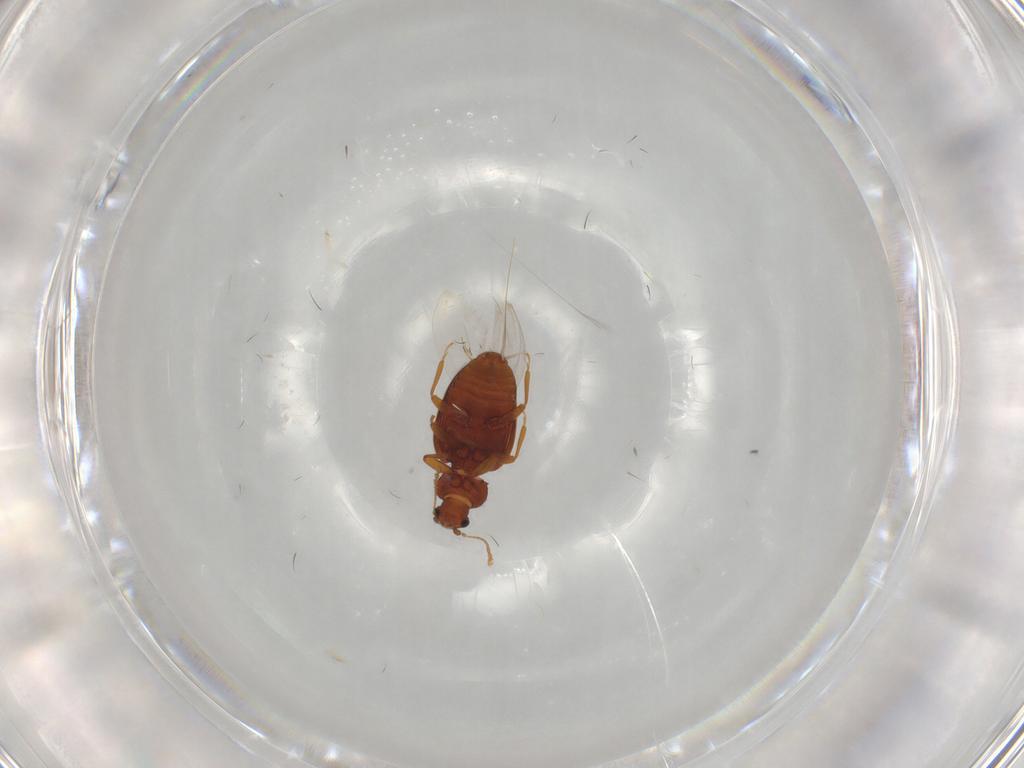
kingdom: Animalia
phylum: Arthropoda
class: Insecta
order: Coleoptera
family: Latridiidae
